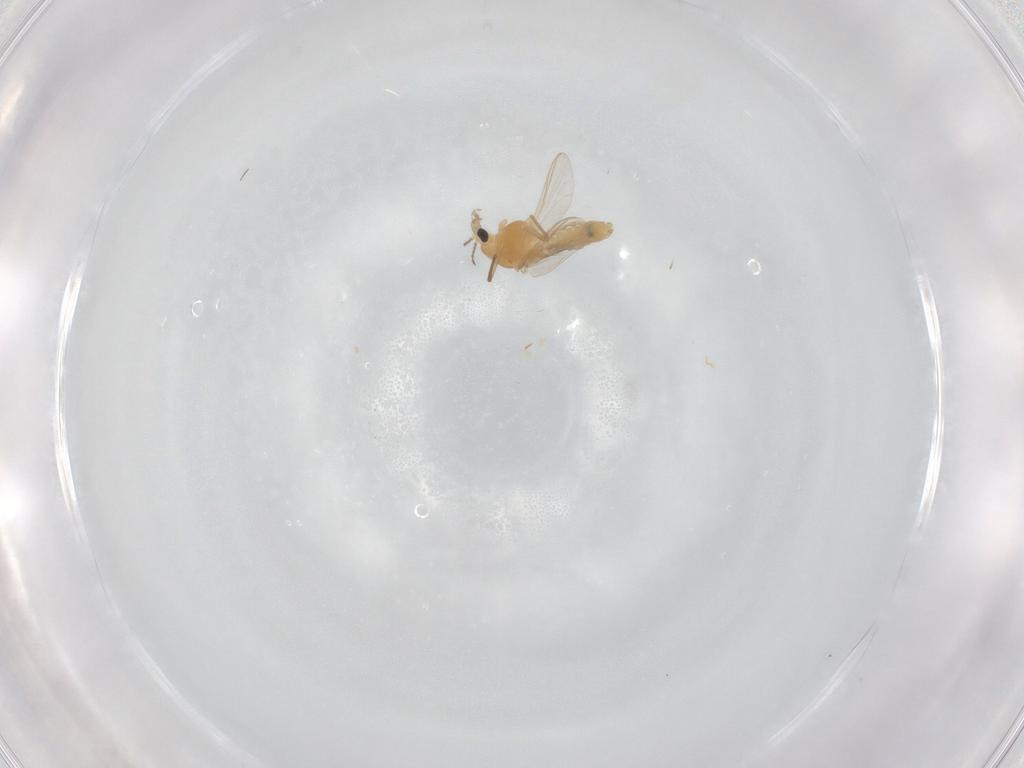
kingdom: Animalia
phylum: Arthropoda
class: Insecta
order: Diptera
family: Chironomidae
